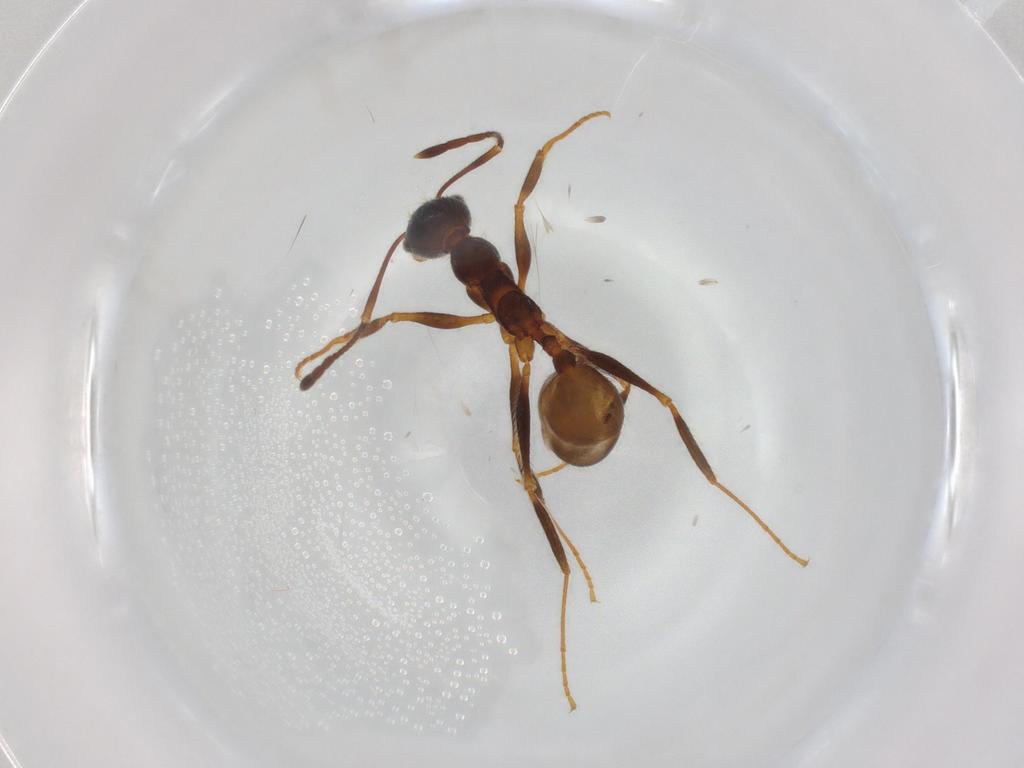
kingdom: Animalia
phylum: Arthropoda
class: Insecta
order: Hymenoptera
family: Formicidae
